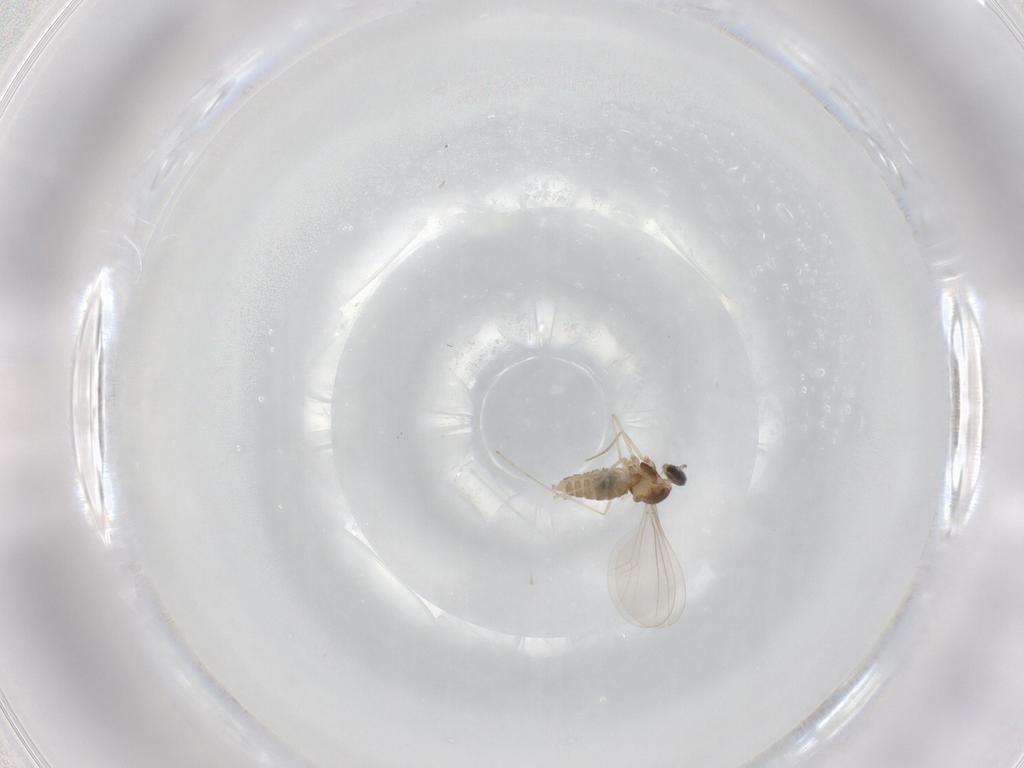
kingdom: Animalia
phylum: Arthropoda
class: Insecta
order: Diptera
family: Cecidomyiidae
